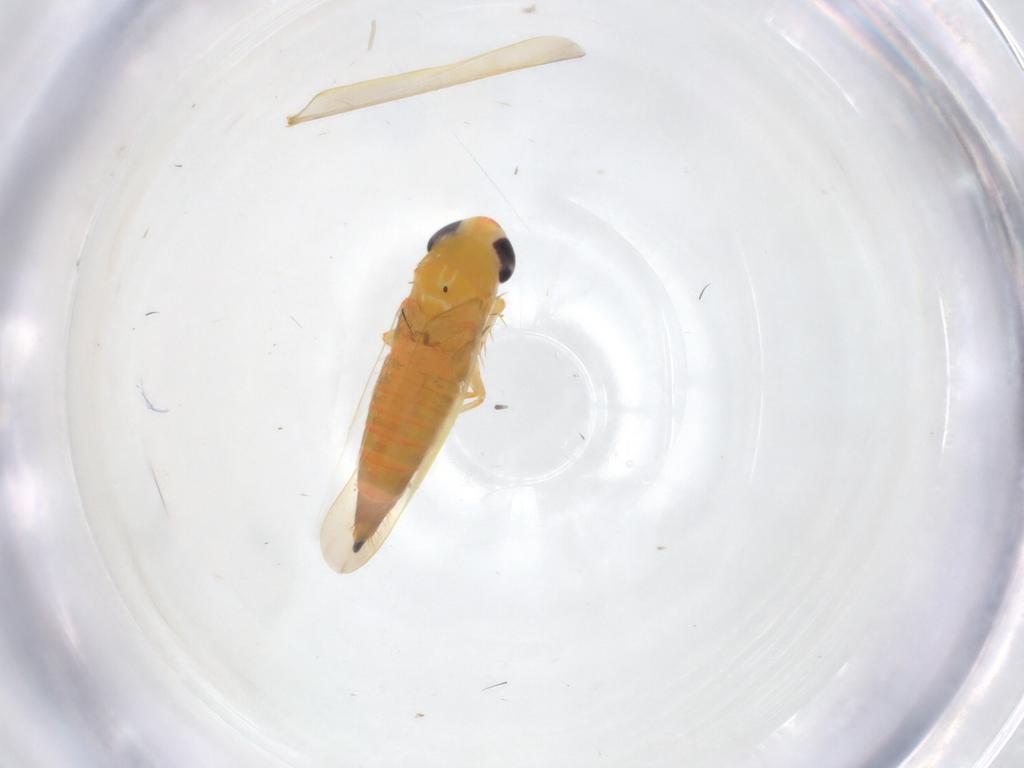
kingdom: Animalia
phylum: Arthropoda
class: Insecta
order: Hemiptera
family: Cicadellidae
